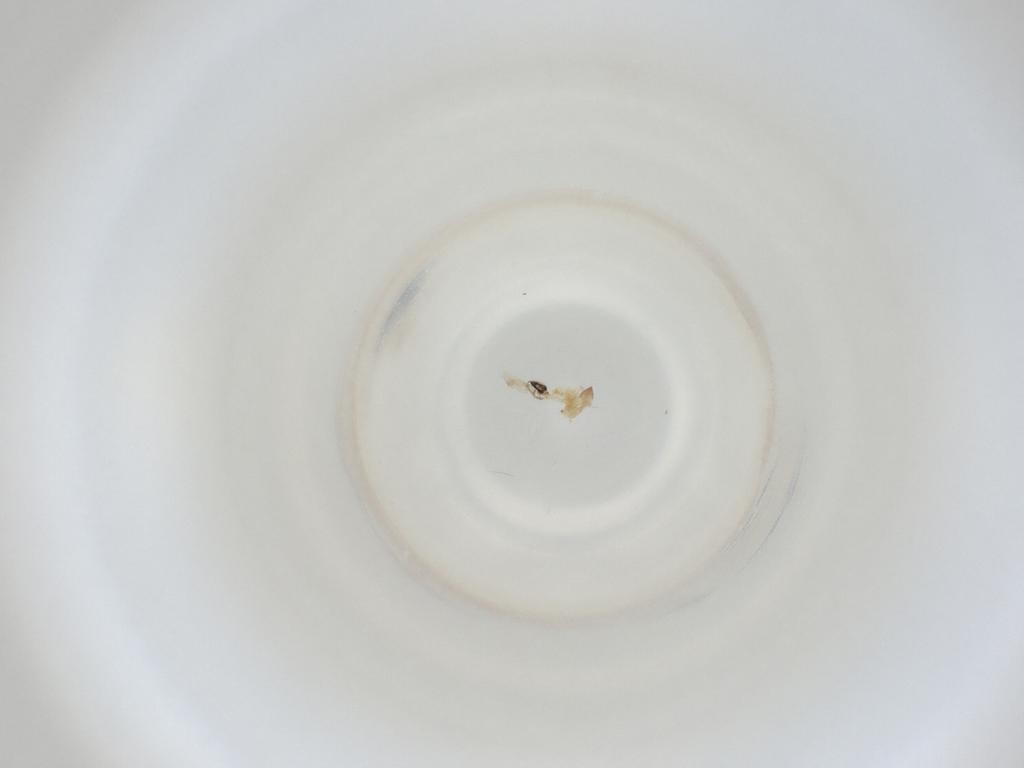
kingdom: Animalia
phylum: Arthropoda
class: Insecta
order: Diptera
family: Cecidomyiidae
